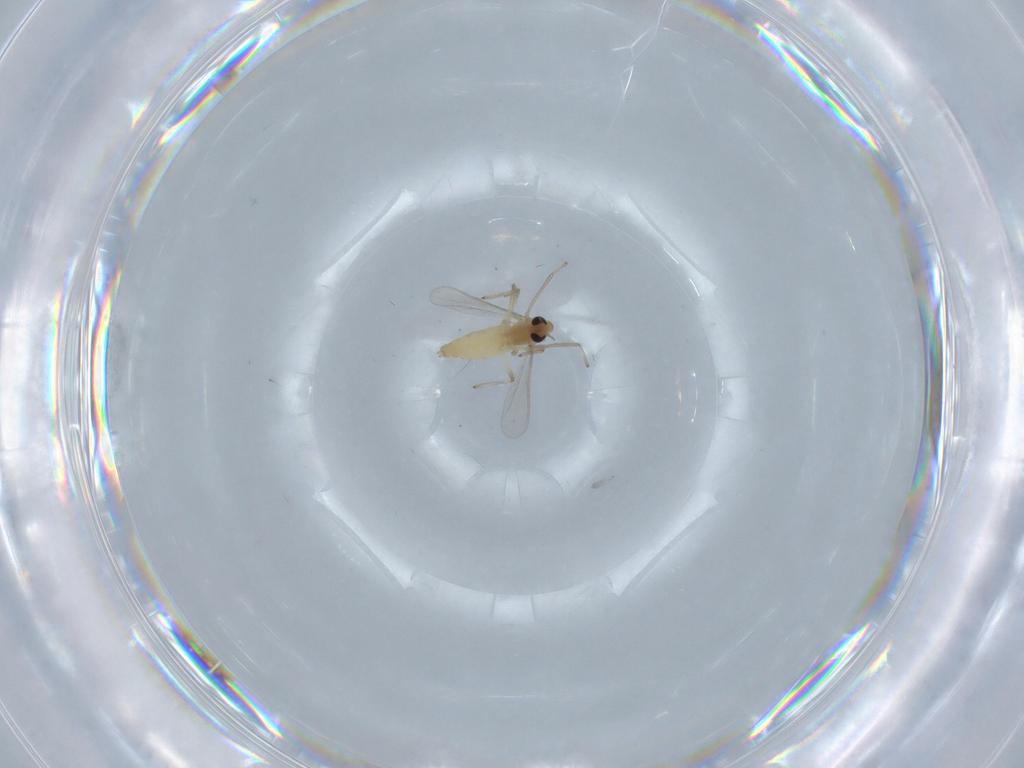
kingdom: Animalia
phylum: Arthropoda
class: Insecta
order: Diptera
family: Chironomidae
